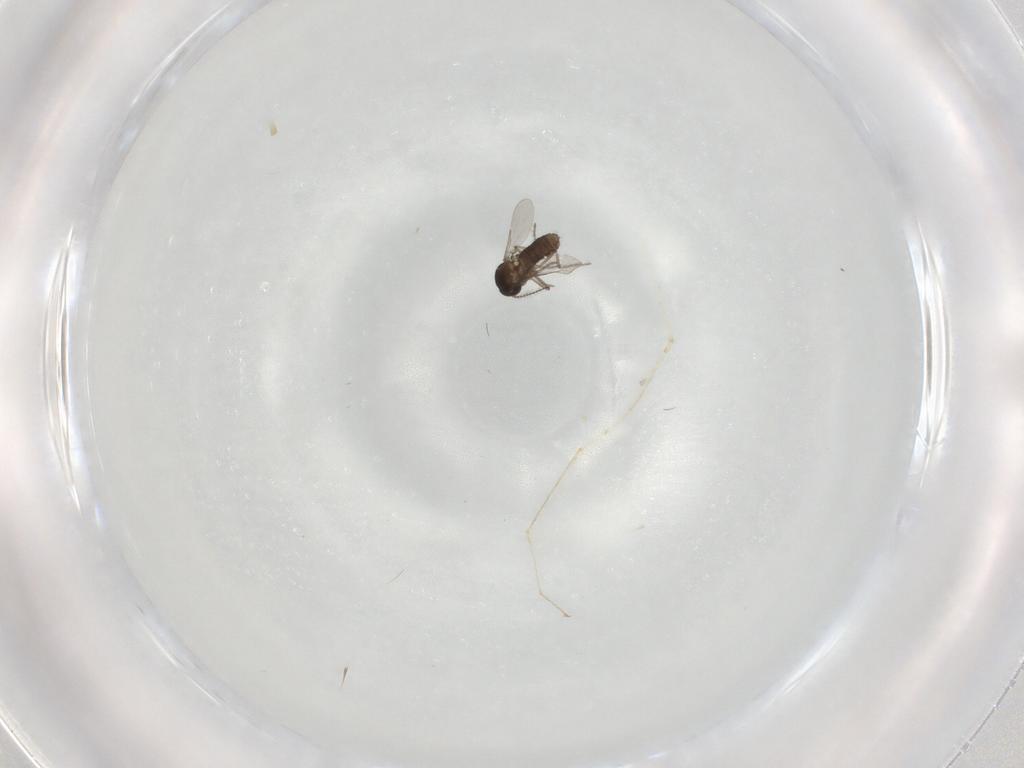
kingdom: Animalia
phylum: Arthropoda
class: Insecta
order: Diptera
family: Cecidomyiidae
